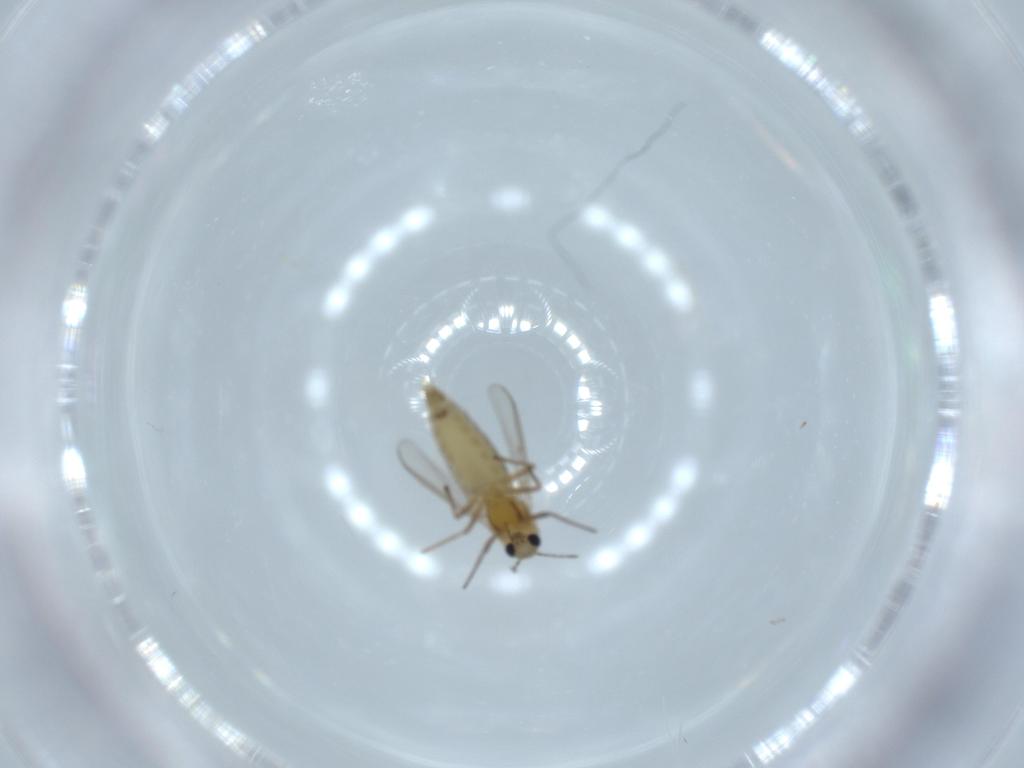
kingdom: Animalia
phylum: Arthropoda
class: Insecta
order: Diptera
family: Chironomidae
